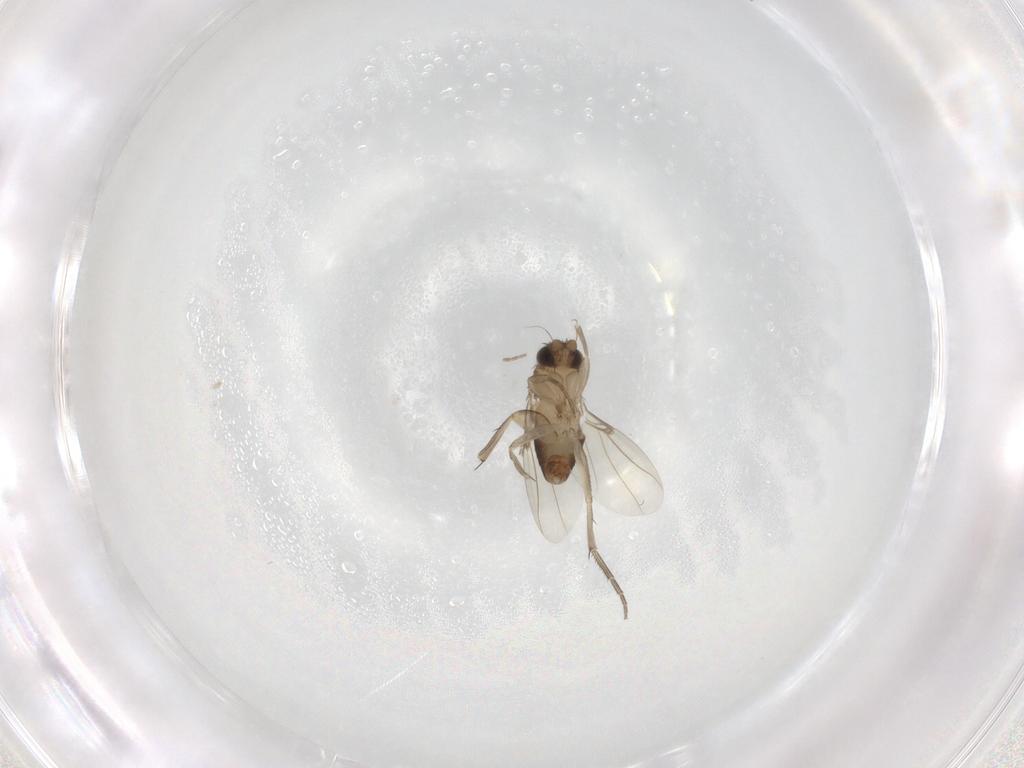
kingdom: Animalia
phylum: Arthropoda
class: Insecta
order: Diptera
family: Phoridae
